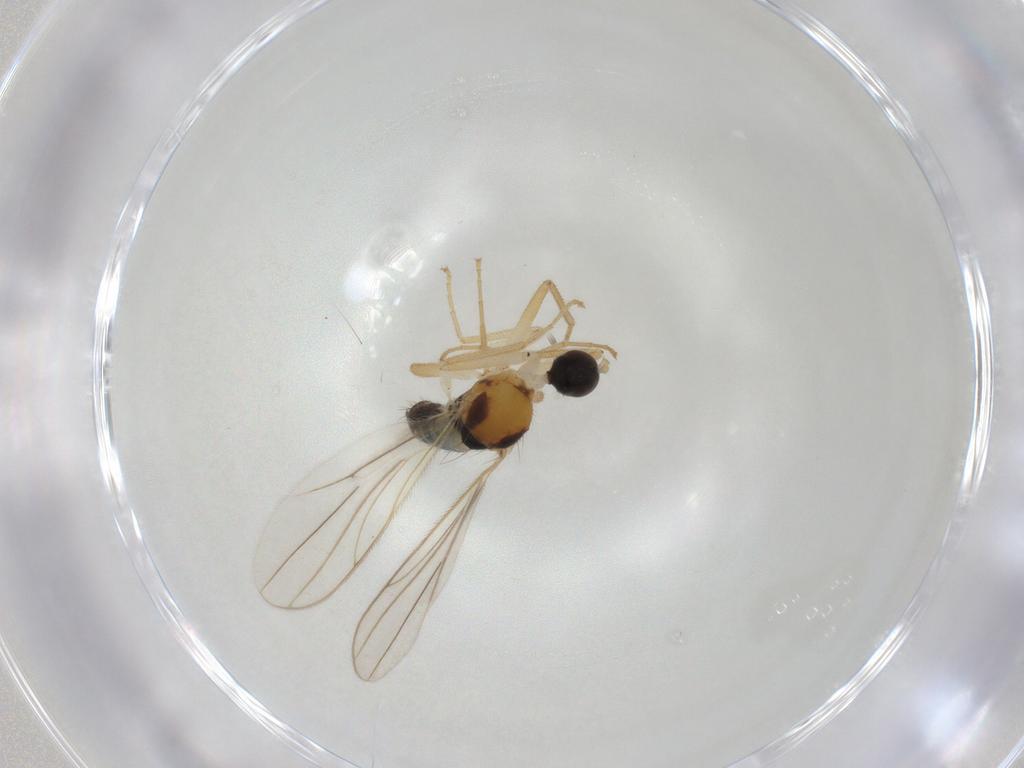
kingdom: Animalia
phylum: Arthropoda
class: Insecta
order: Diptera
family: Hybotidae
